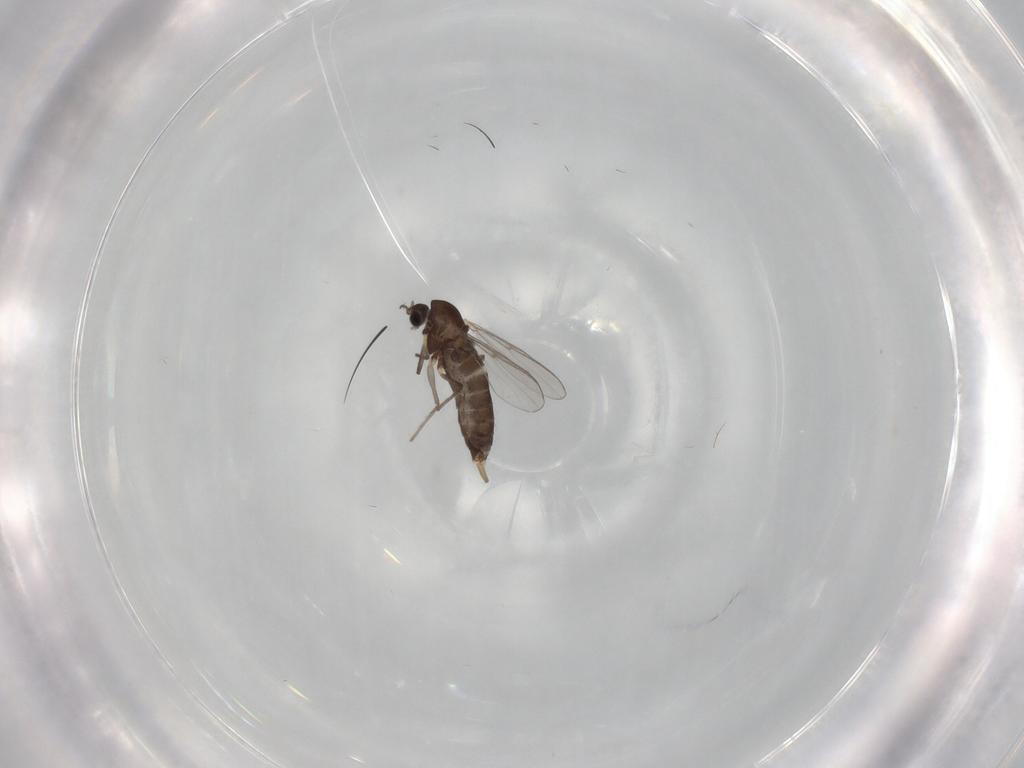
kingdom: Animalia
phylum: Arthropoda
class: Insecta
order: Diptera
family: Chironomidae
